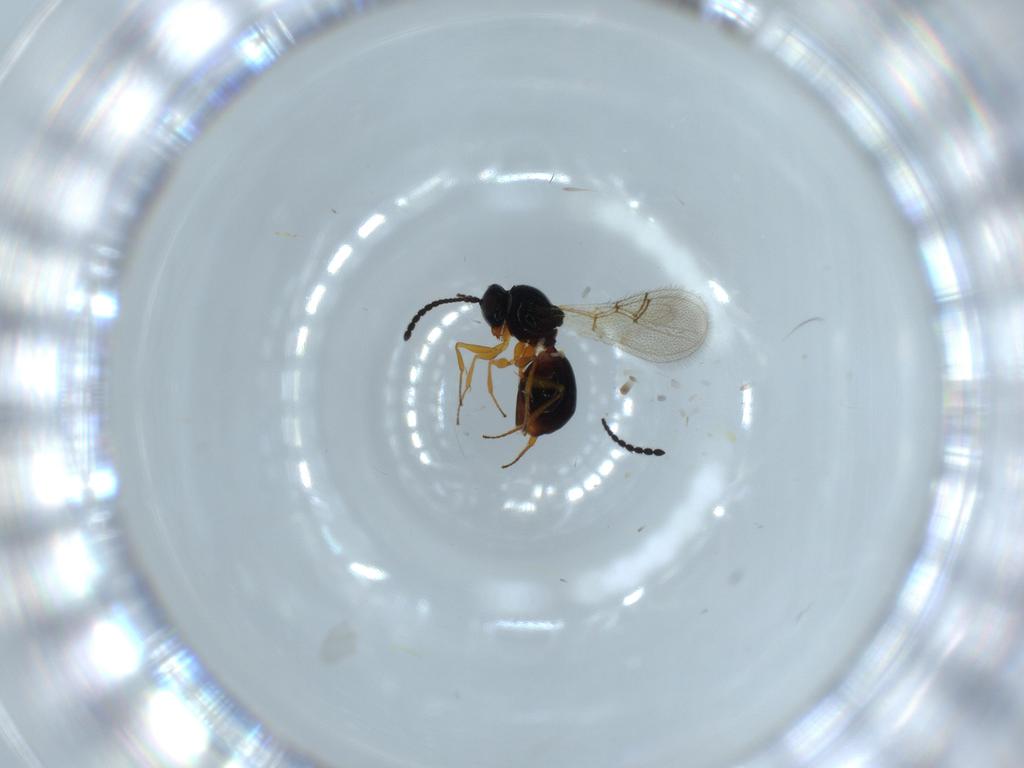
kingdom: Animalia
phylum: Arthropoda
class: Insecta
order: Hymenoptera
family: Figitidae
